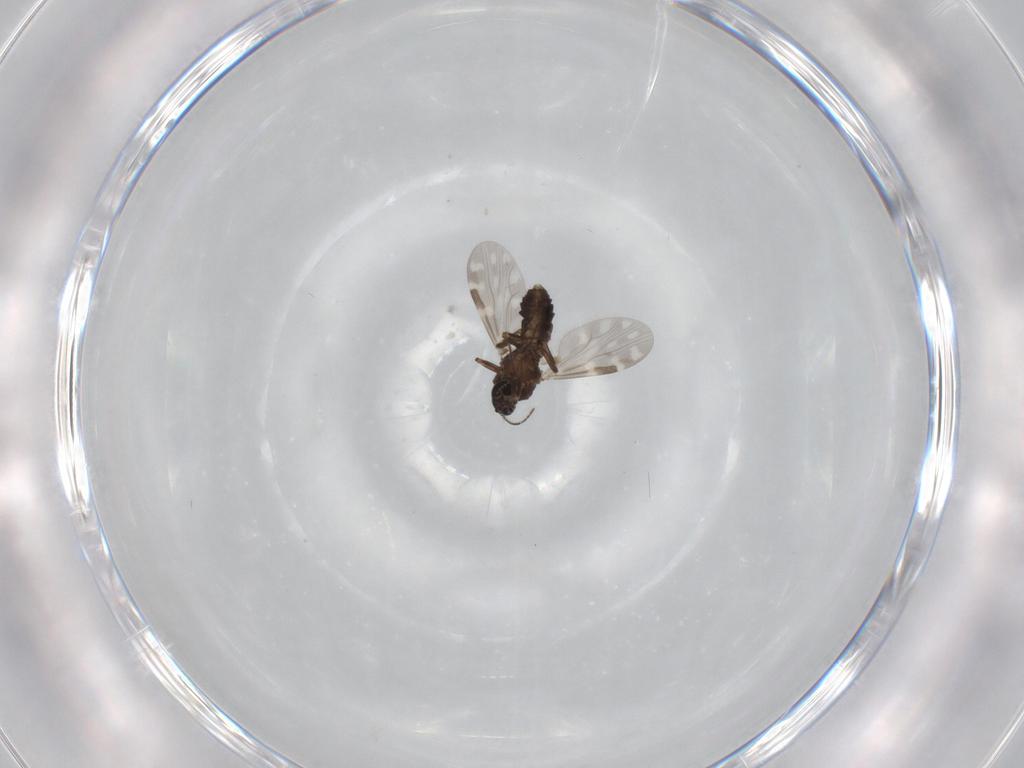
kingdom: Animalia
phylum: Arthropoda
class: Insecta
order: Diptera
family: Cecidomyiidae
